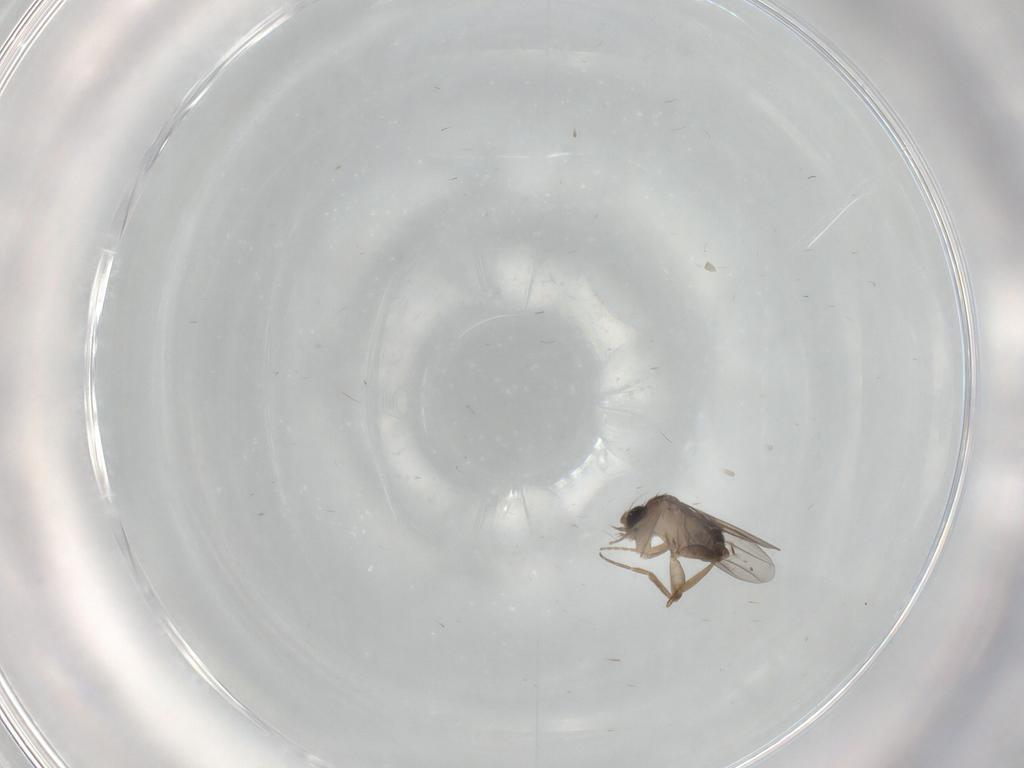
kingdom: Animalia
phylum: Arthropoda
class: Insecta
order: Diptera
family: Phoridae
